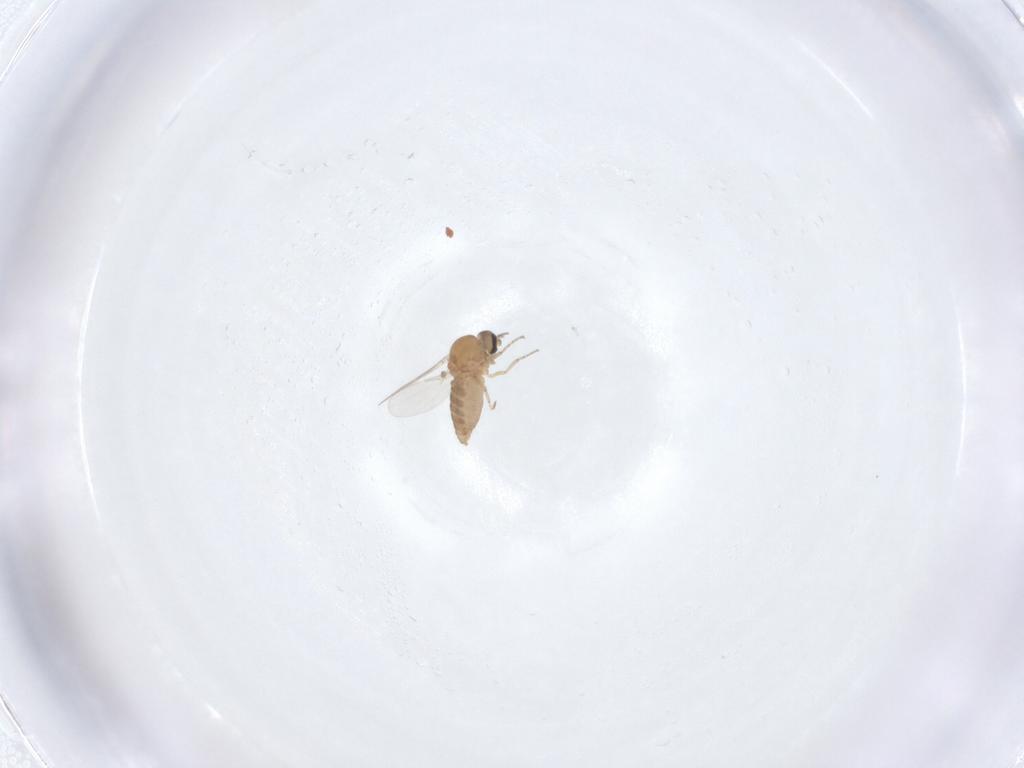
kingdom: Animalia
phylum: Arthropoda
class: Insecta
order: Diptera
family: Ceratopogonidae
